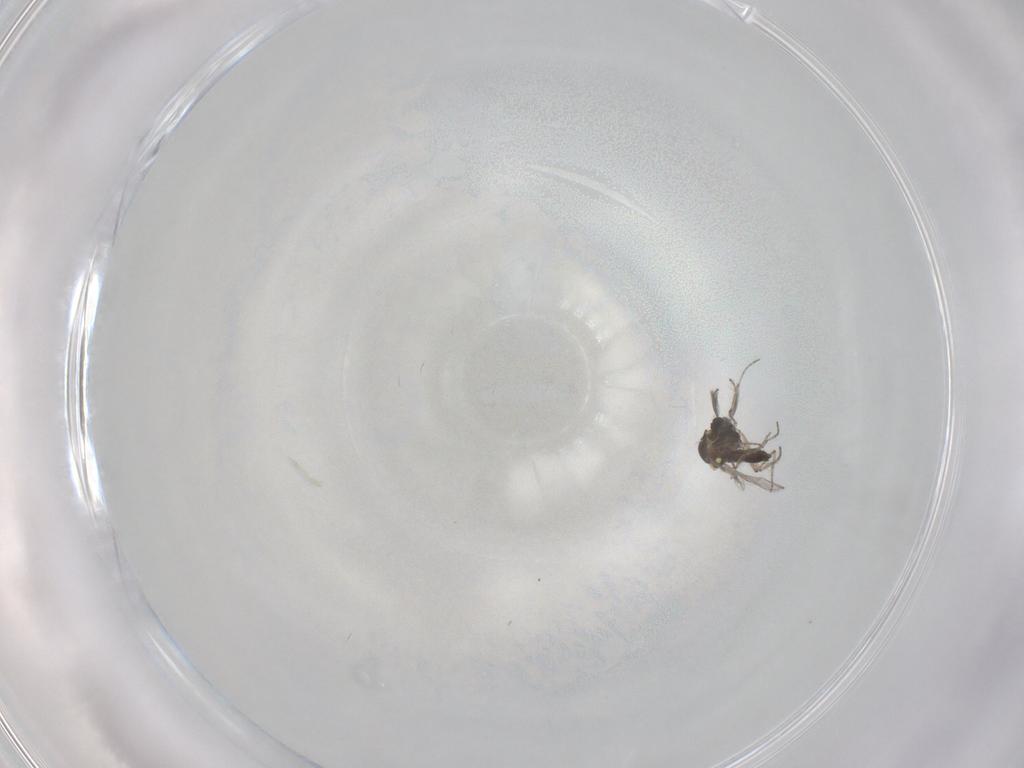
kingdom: Animalia
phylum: Arthropoda
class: Insecta
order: Diptera
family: Ceratopogonidae
